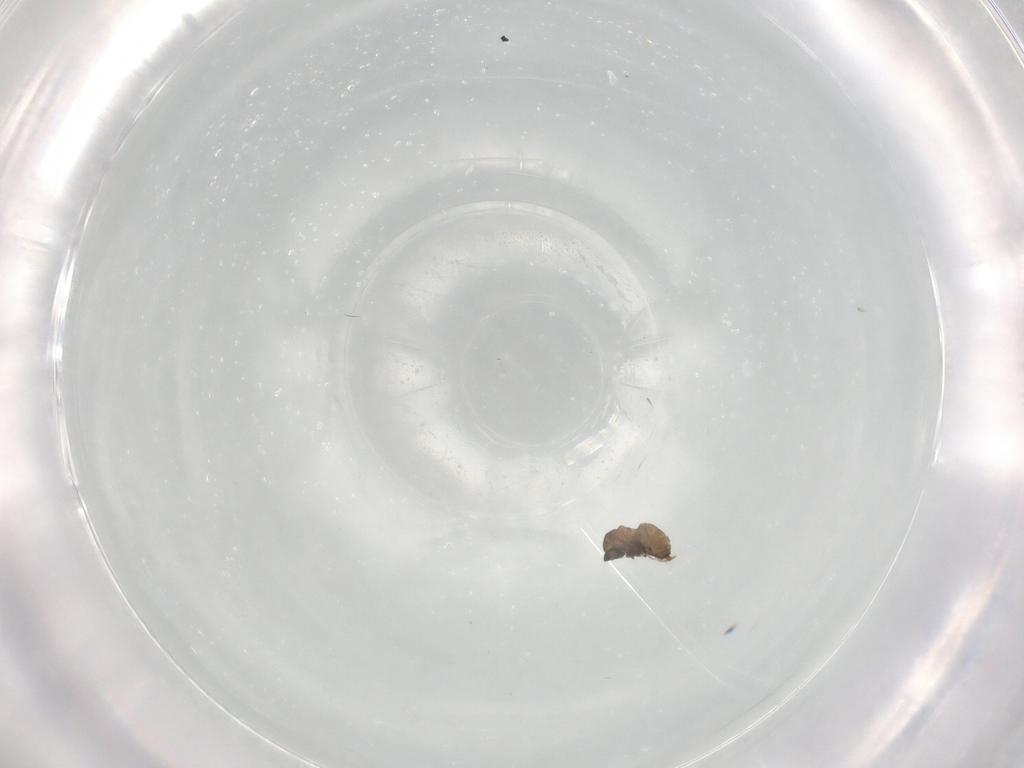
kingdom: Animalia
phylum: Arthropoda
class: Insecta
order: Diptera
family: Cecidomyiidae
